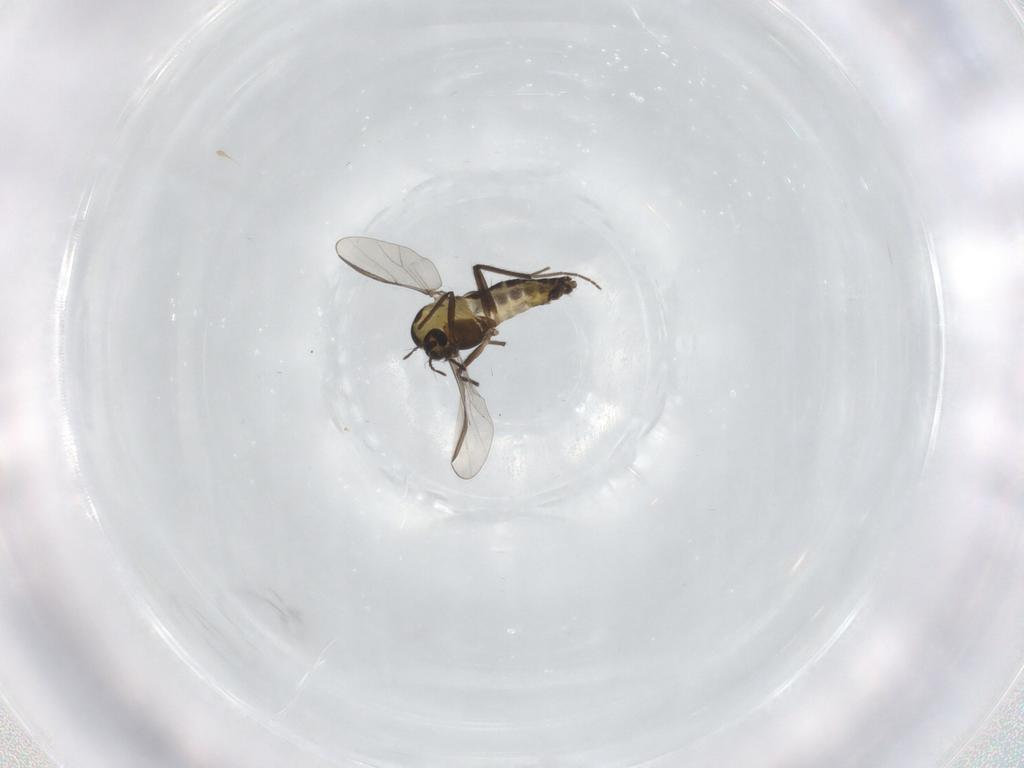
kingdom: Animalia
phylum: Arthropoda
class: Insecta
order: Diptera
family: Chironomidae
